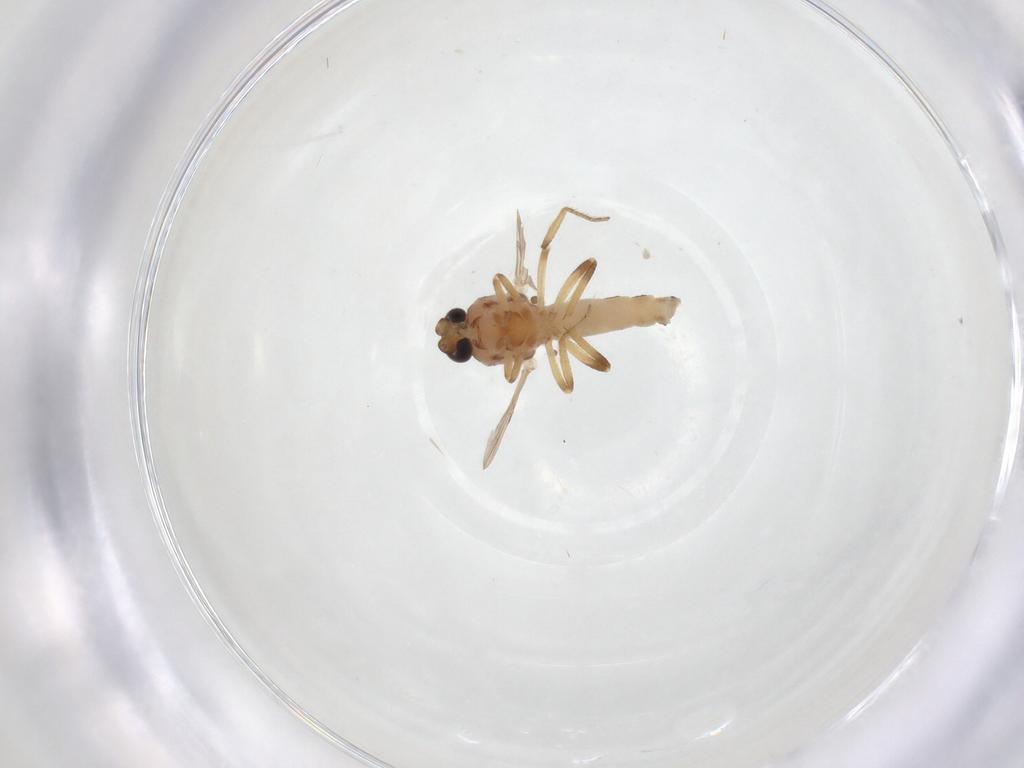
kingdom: Animalia
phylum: Arthropoda
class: Insecta
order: Diptera
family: Ceratopogonidae
